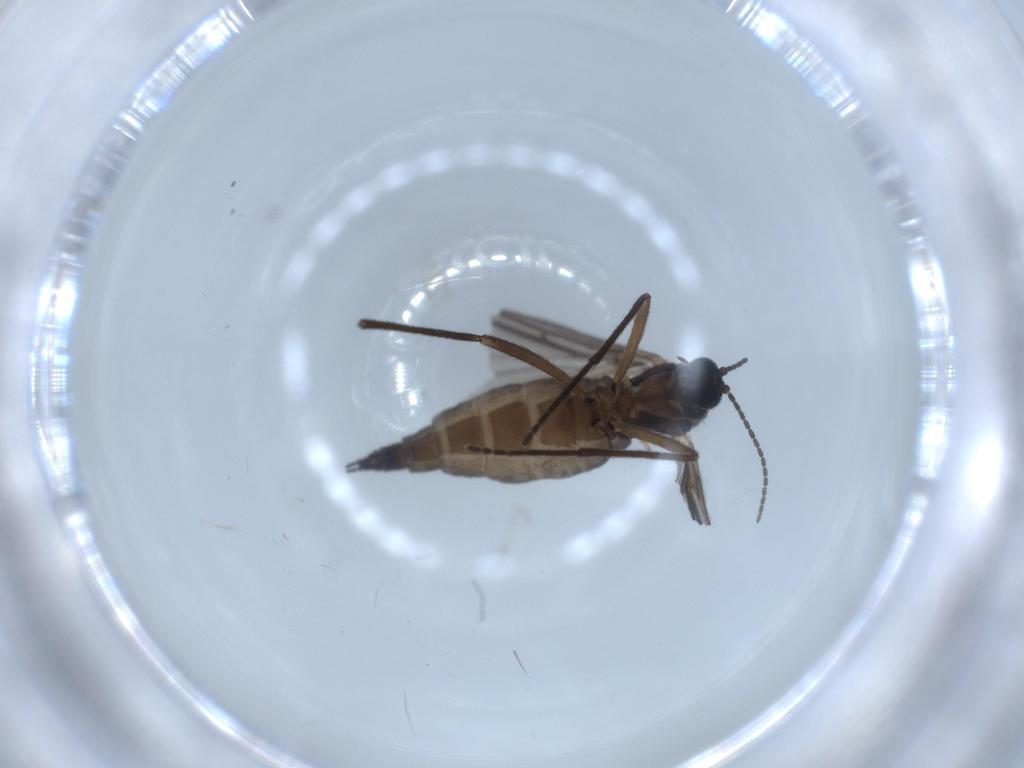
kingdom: Animalia
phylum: Arthropoda
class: Insecta
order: Diptera
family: Sciaridae
